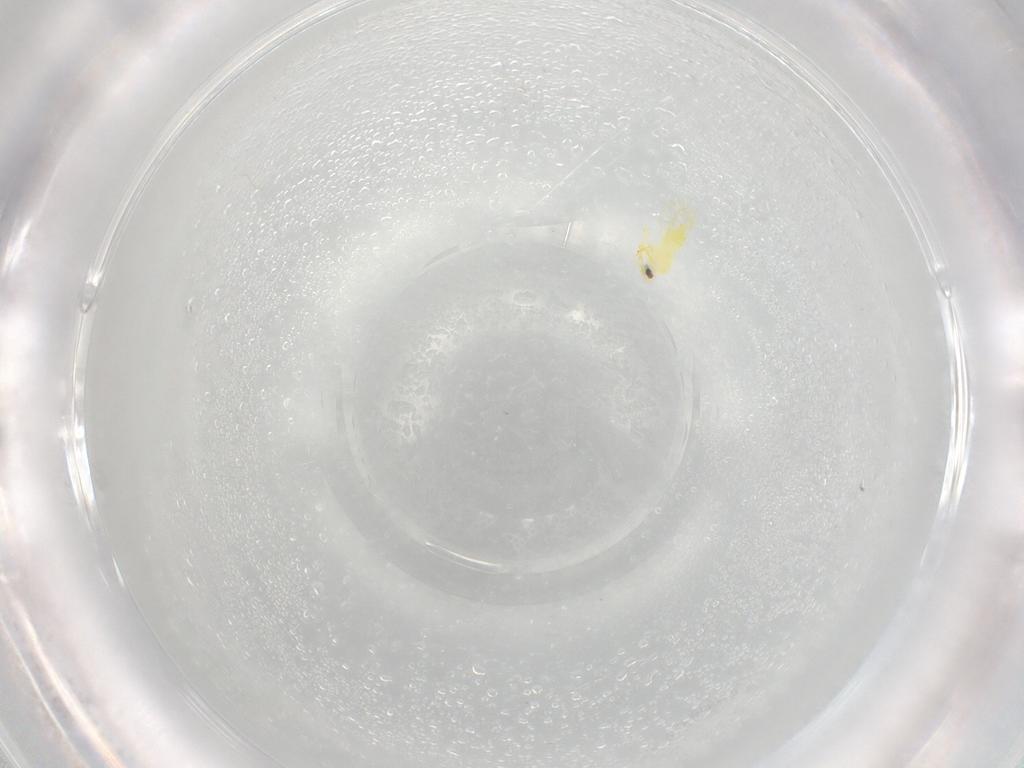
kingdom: Animalia
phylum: Arthropoda
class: Insecta
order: Hemiptera
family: Aleyrodidae
